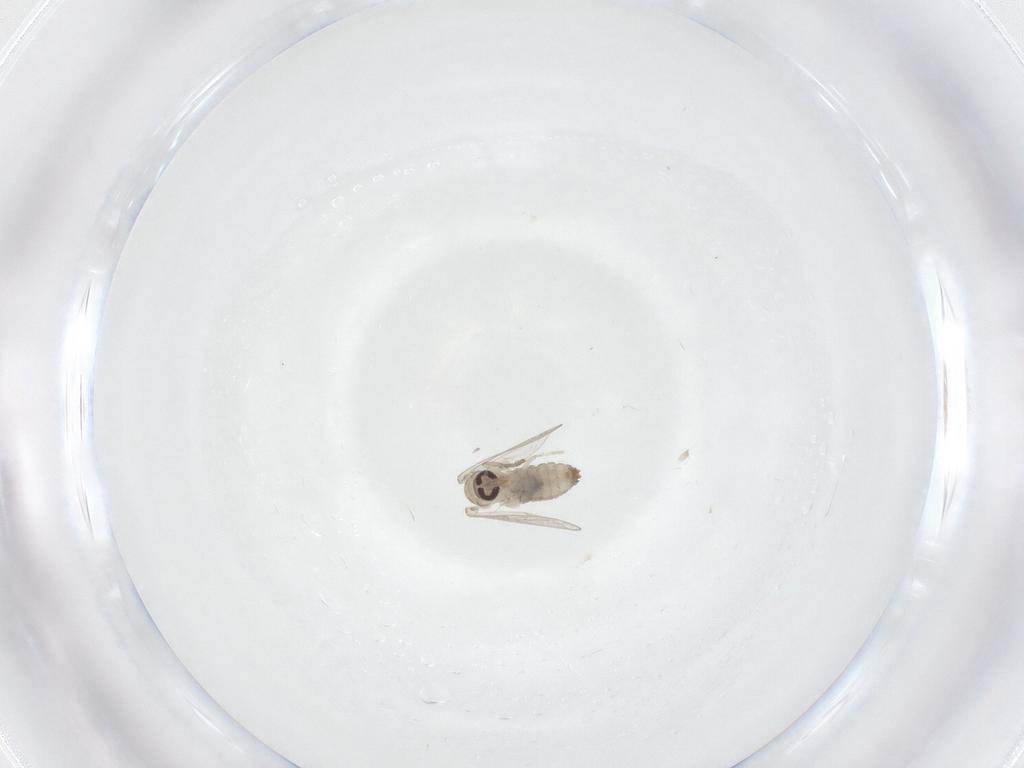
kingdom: Animalia
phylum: Arthropoda
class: Insecta
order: Diptera
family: Psychodidae
